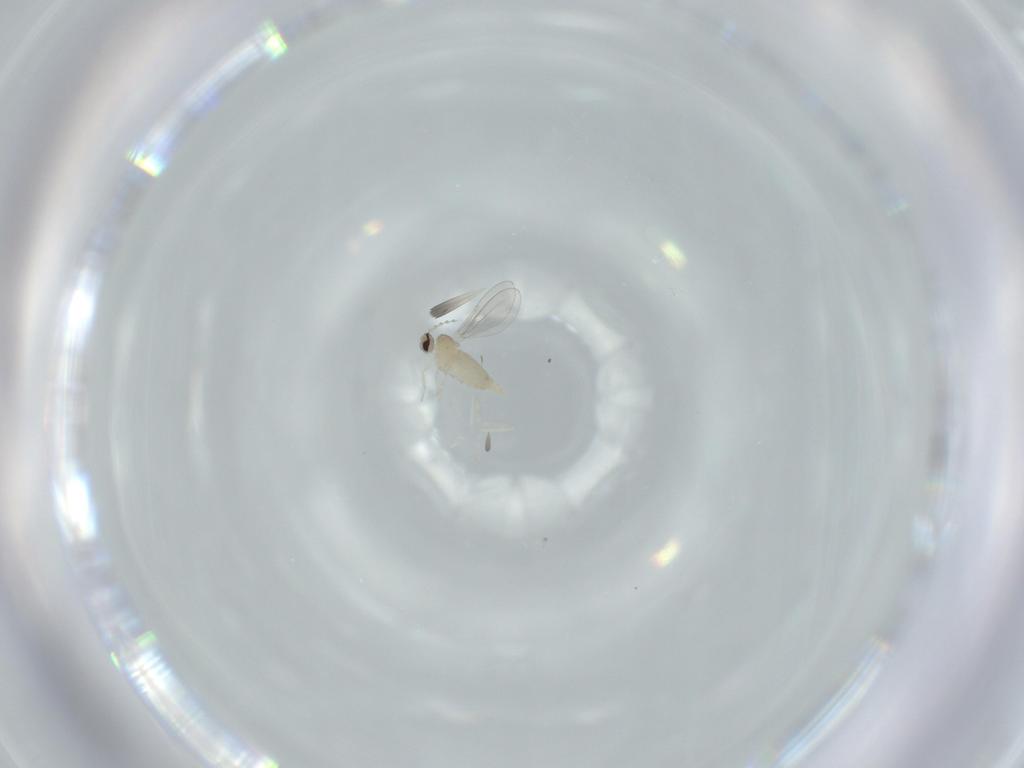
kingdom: Animalia
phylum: Arthropoda
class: Insecta
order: Diptera
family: Cecidomyiidae
